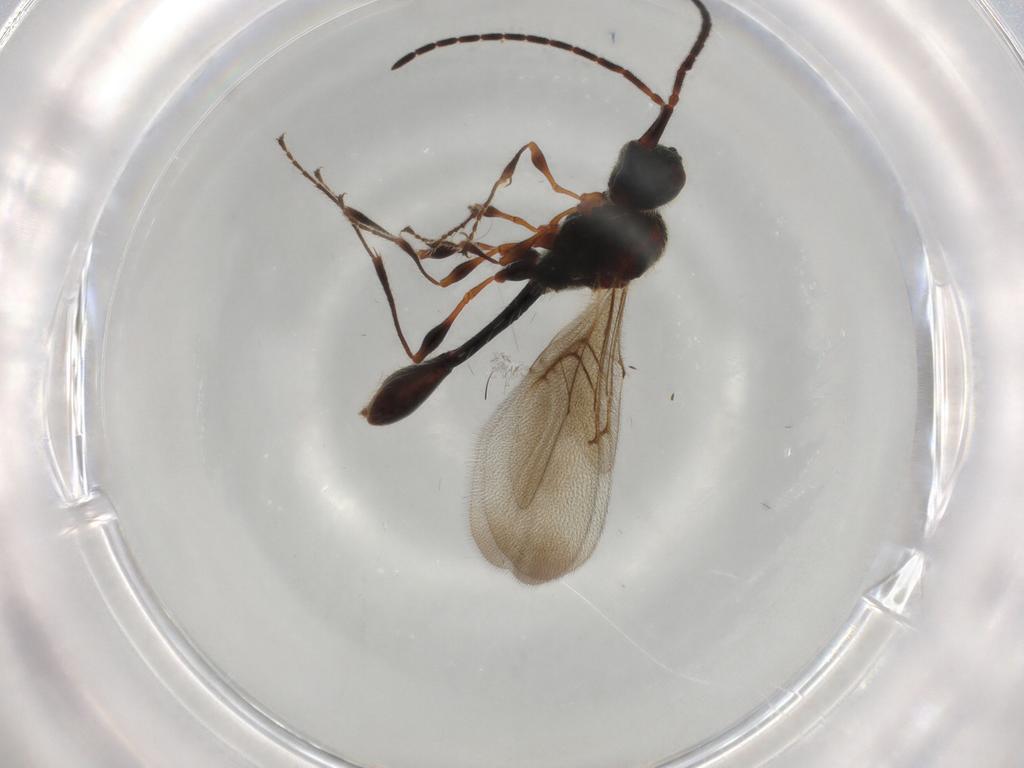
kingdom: Animalia
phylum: Arthropoda
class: Insecta
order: Hymenoptera
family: Diapriidae
